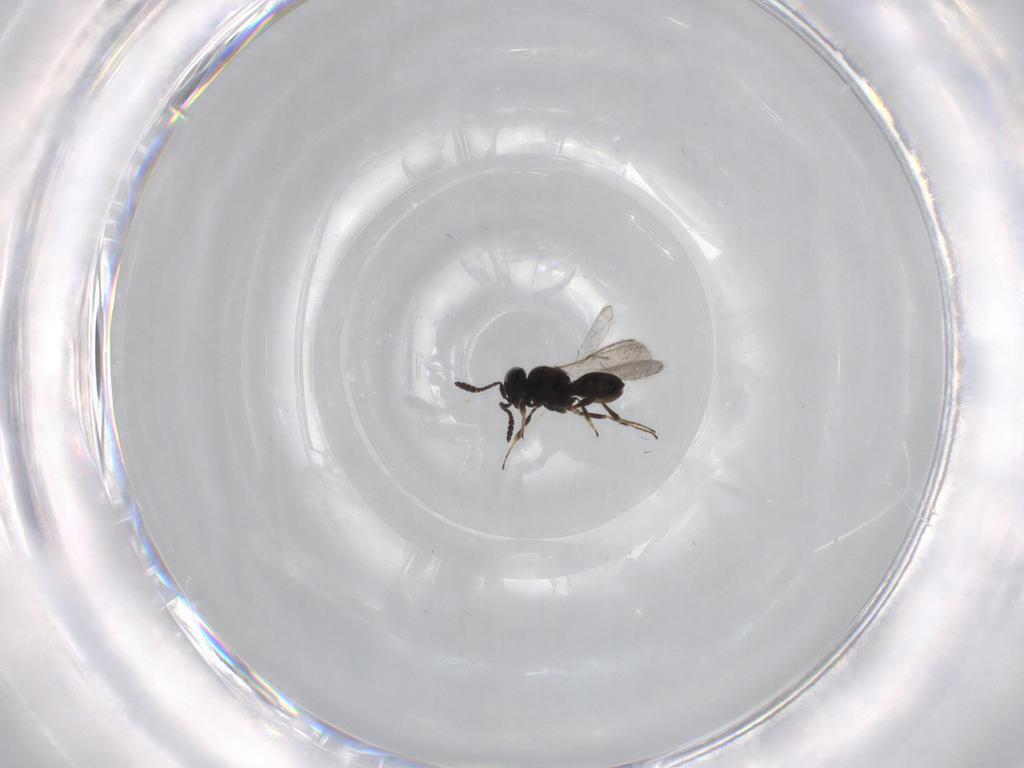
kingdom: Animalia
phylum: Arthropoda
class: Insecta
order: Hymenoptera
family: Scelionidae
